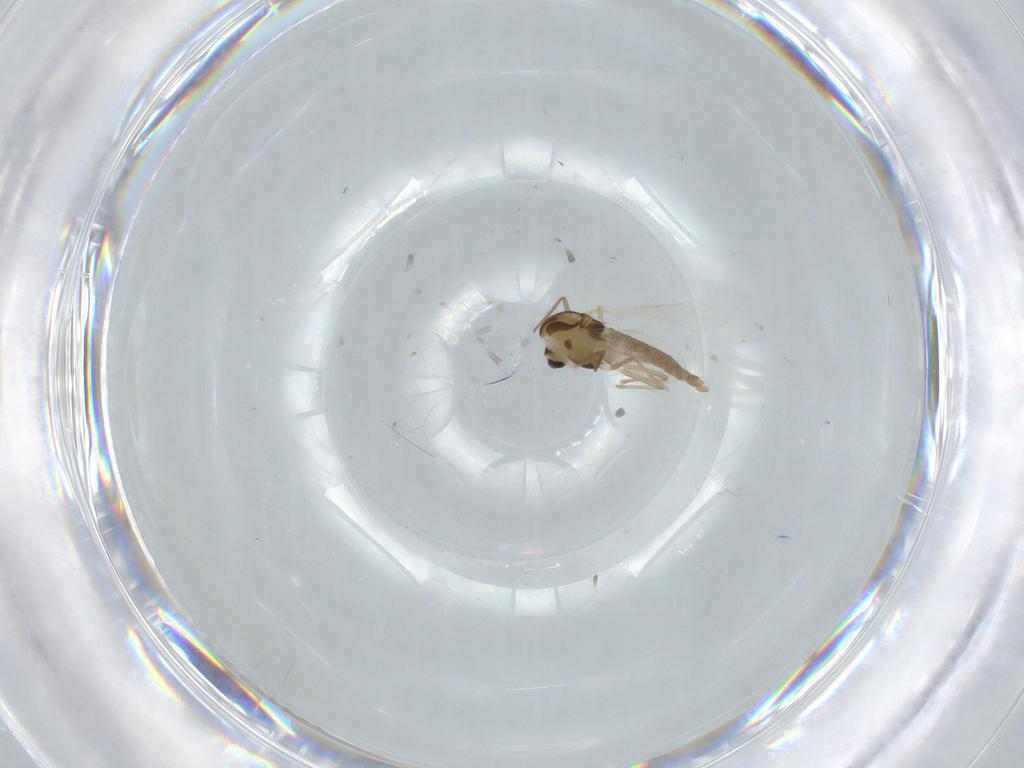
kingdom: Animalia
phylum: Arthropoda
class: Insecta
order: Diptera
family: Chironomidae
